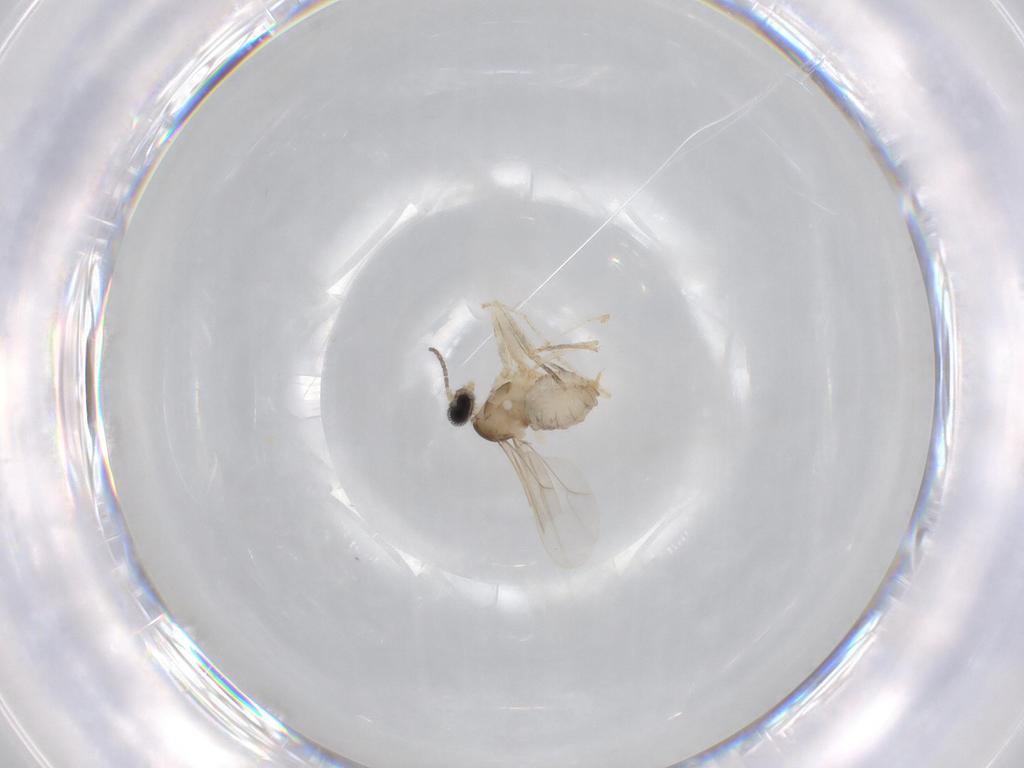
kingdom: Animalia
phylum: Arthropoda
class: Insecta
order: Diptera
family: Cecidomyiidae
